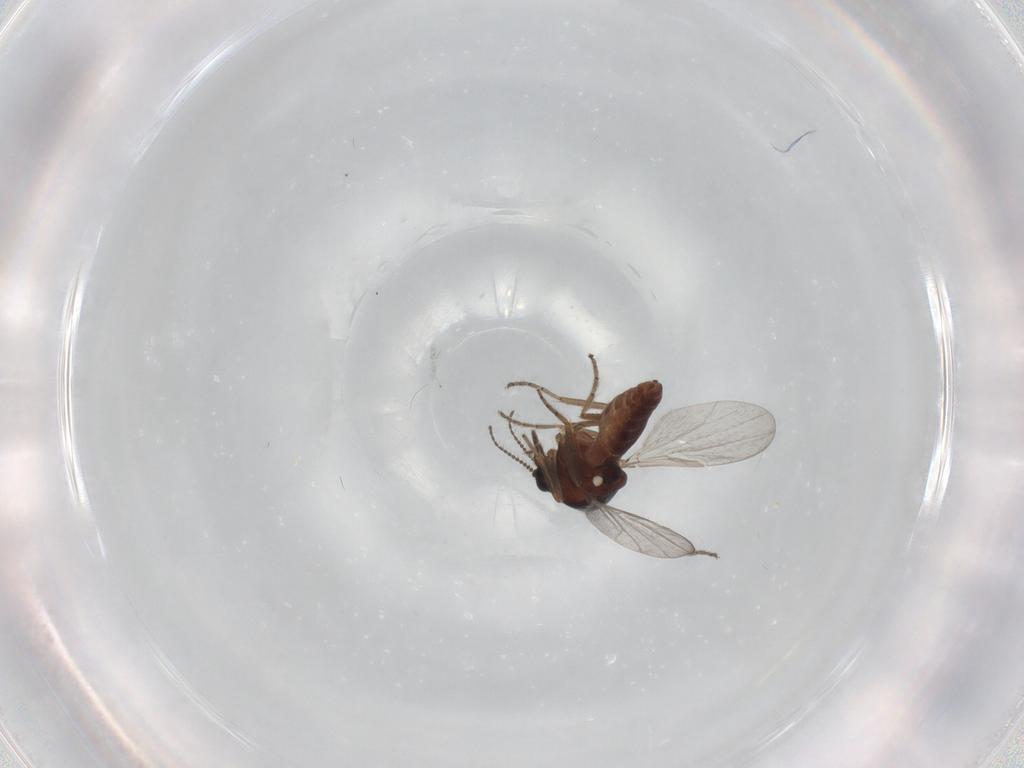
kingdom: Animalia
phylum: Arthropoda
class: Insecta
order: Diptera
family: Ceratopogonidae
